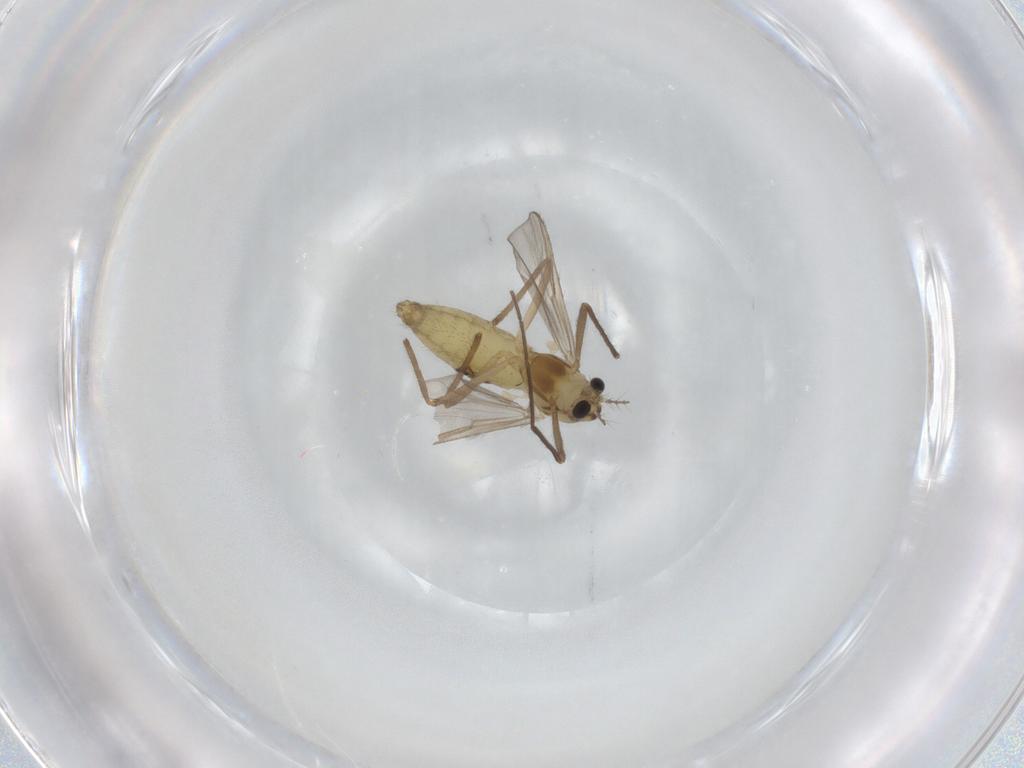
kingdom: Animalia
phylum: Arthropoda
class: Insecta
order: Diptera
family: Chironomidae
